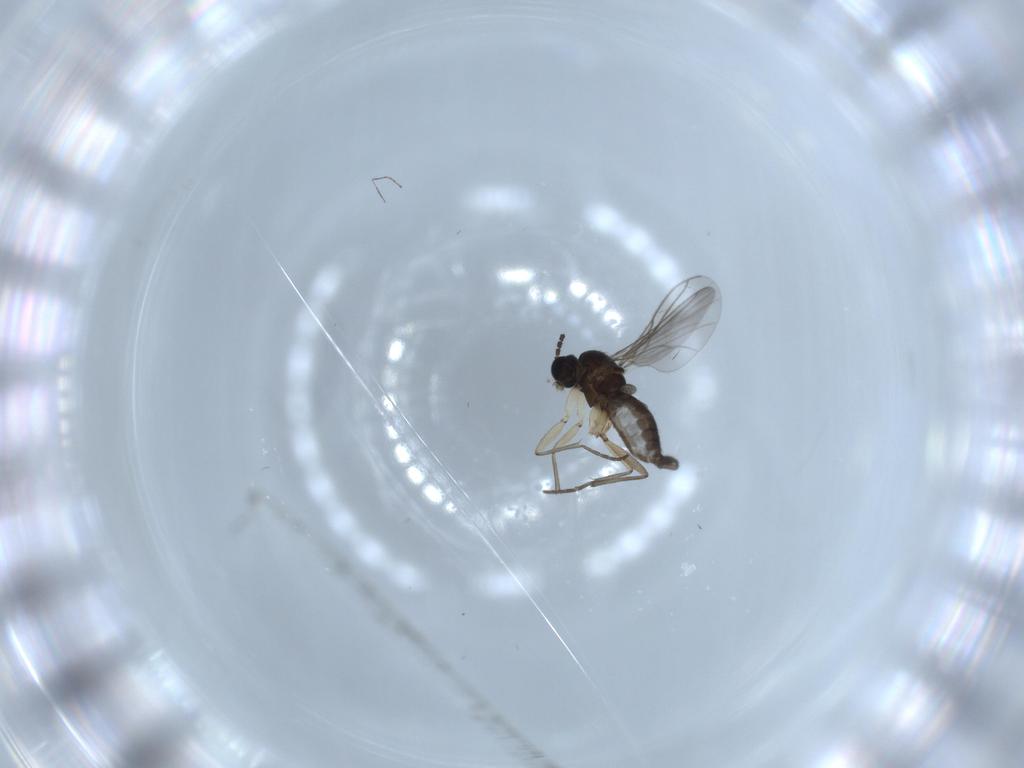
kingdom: Animalia
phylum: Arthropoda
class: Insecta
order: Diptera
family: Sciaridae
